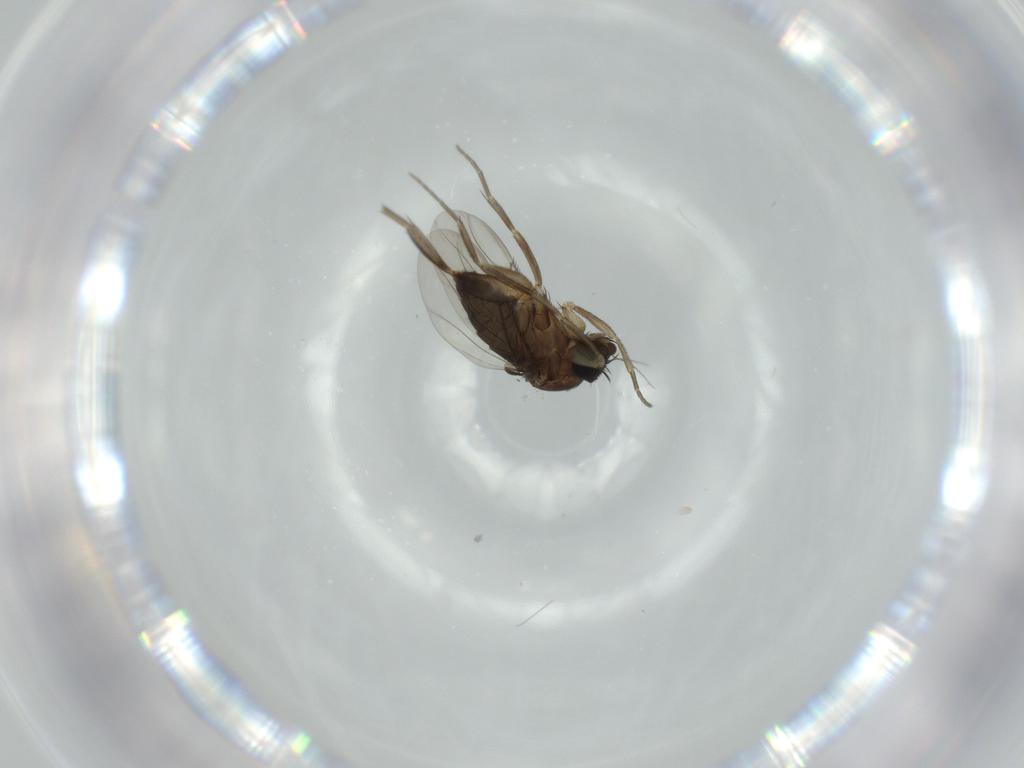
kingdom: Animalia
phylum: Arthropoda
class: Insecta
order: Diptera
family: Phoridae
